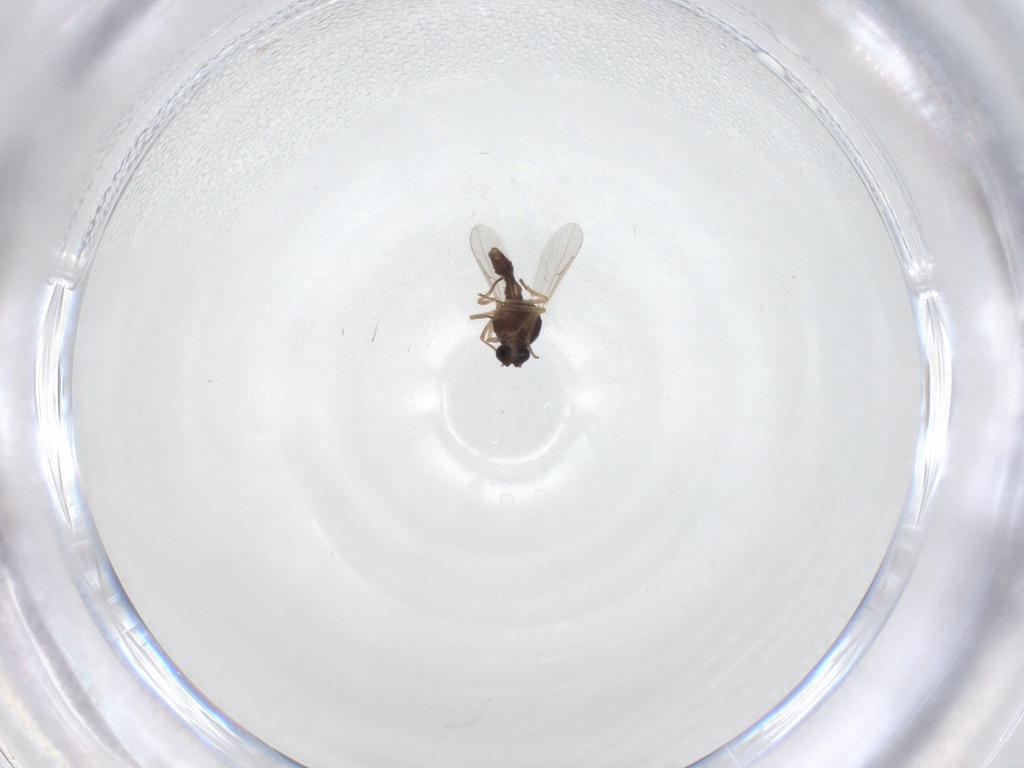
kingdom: Animalia
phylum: Arthropoda
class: Insecta
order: Diptera
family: Ceratopogonidae
